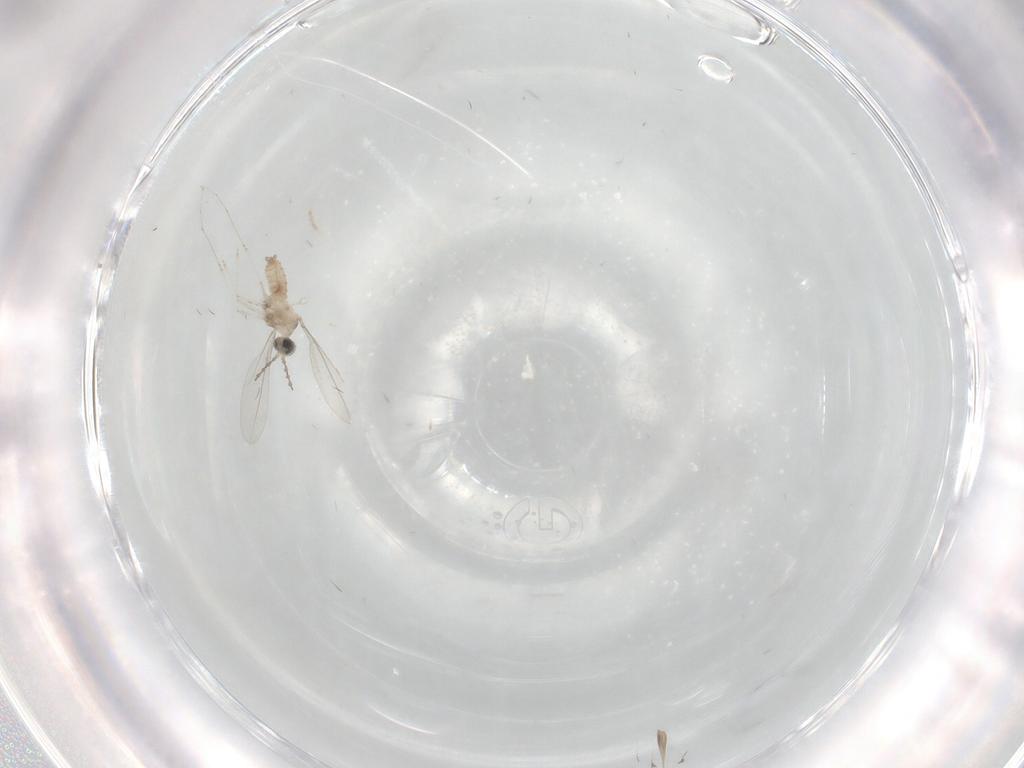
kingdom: Animalia
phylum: Arthropoda
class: Insecta
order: Diptera
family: Cecidomyiidae
